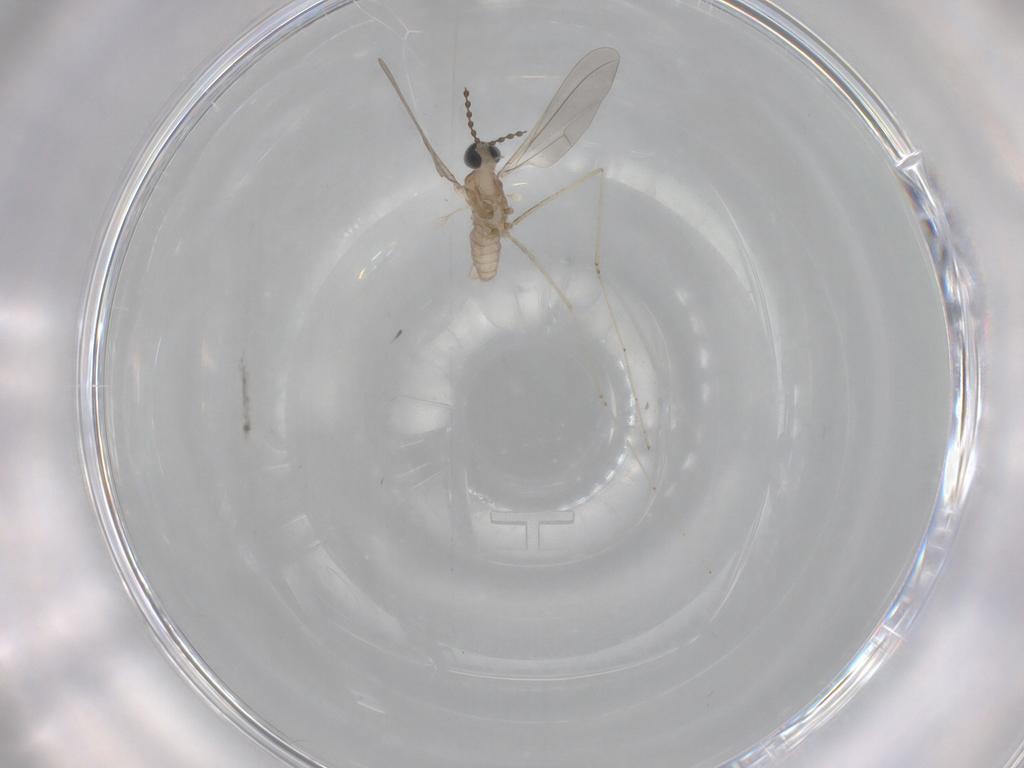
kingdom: Animalia
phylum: Arthropoda
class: Insecta
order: Diptera
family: Cecidomyiidae
